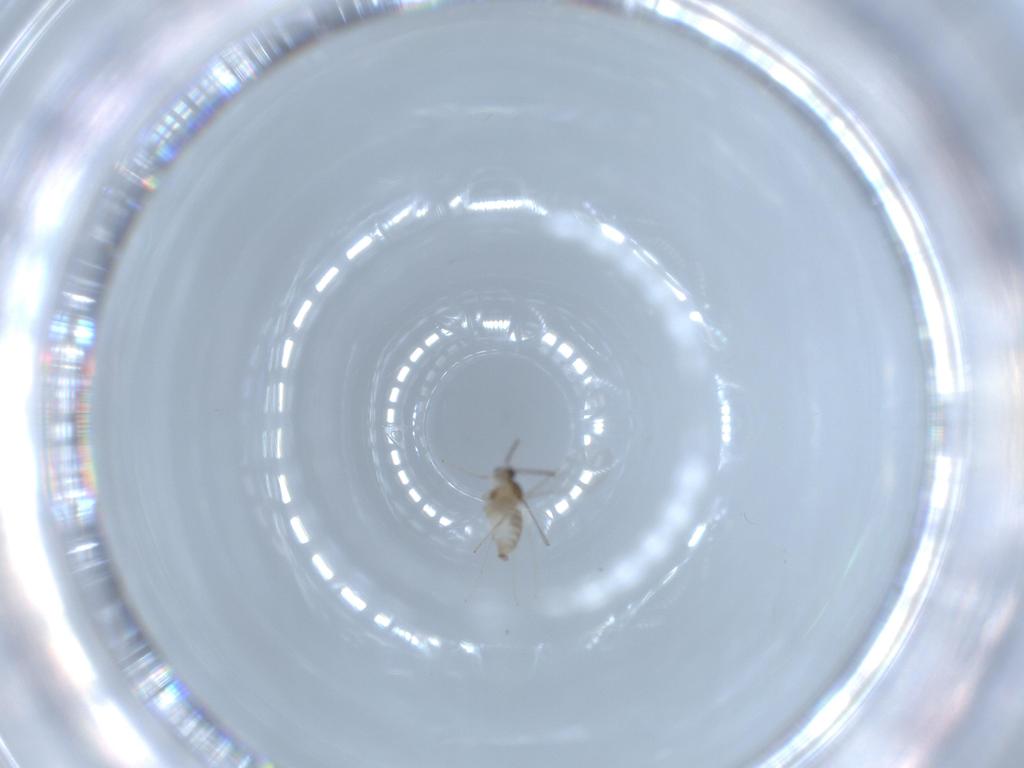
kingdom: Animalia
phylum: Arthropoda
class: Insecta
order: Diptera
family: Cecidomyiidae
